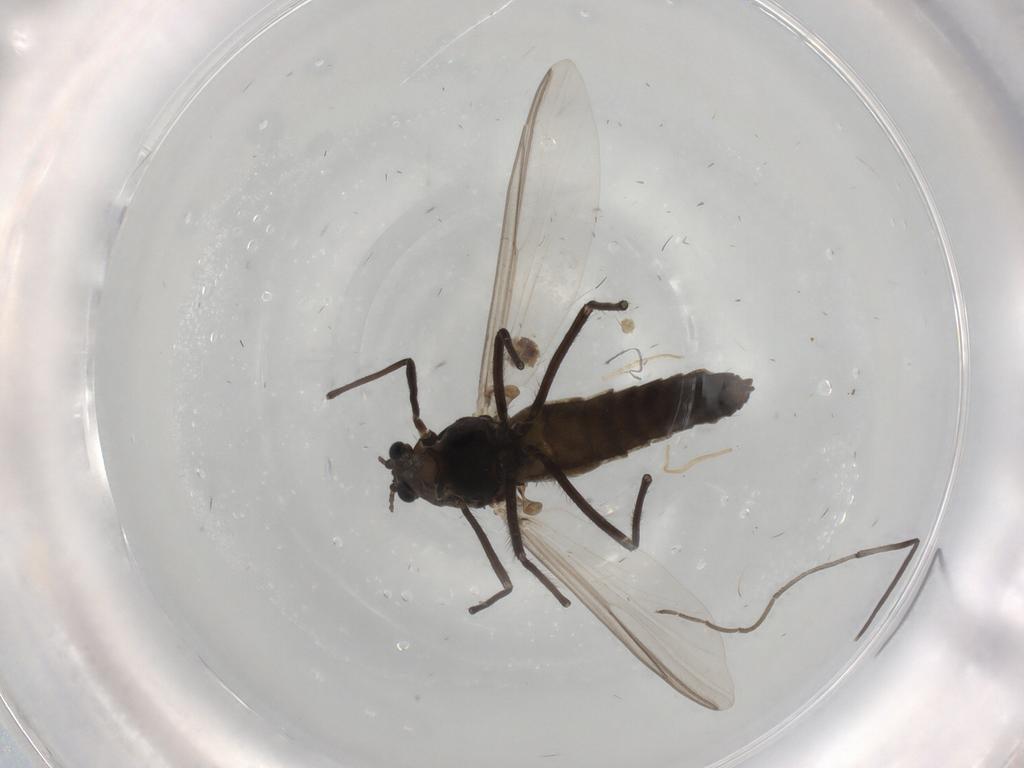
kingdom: Animalia
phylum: Arthropoda
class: Insecta
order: Diptera
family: Chironomidae
